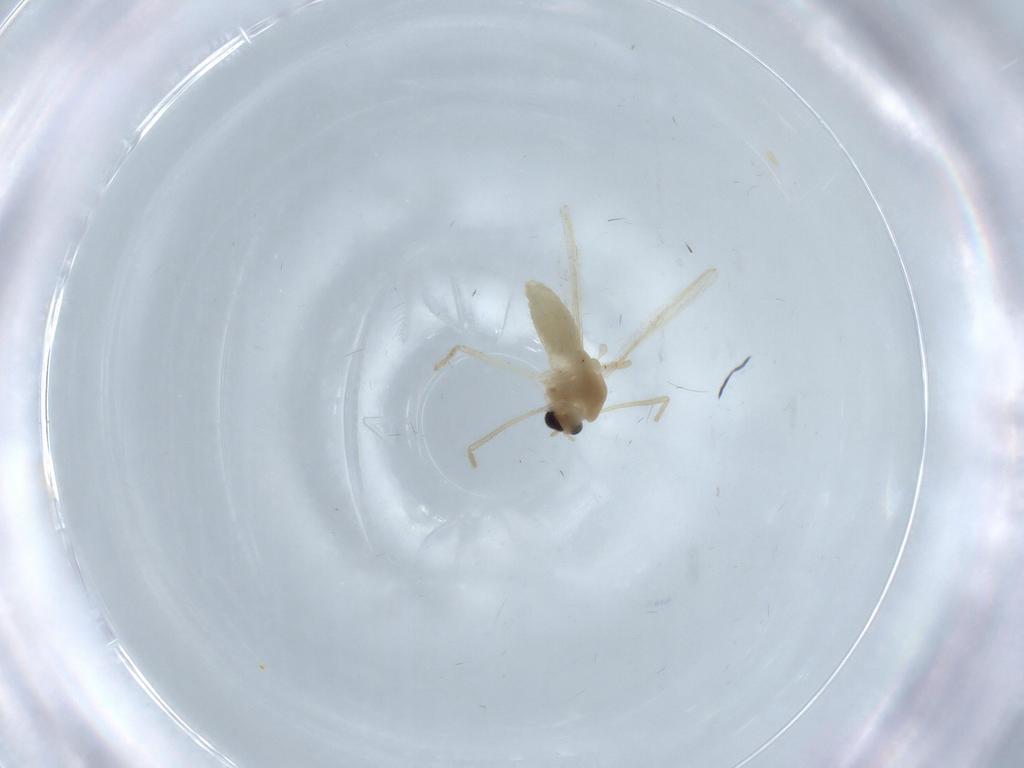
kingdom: Animalia
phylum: Arthropoda
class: Insecta
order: Diptera
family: Chironomidae
